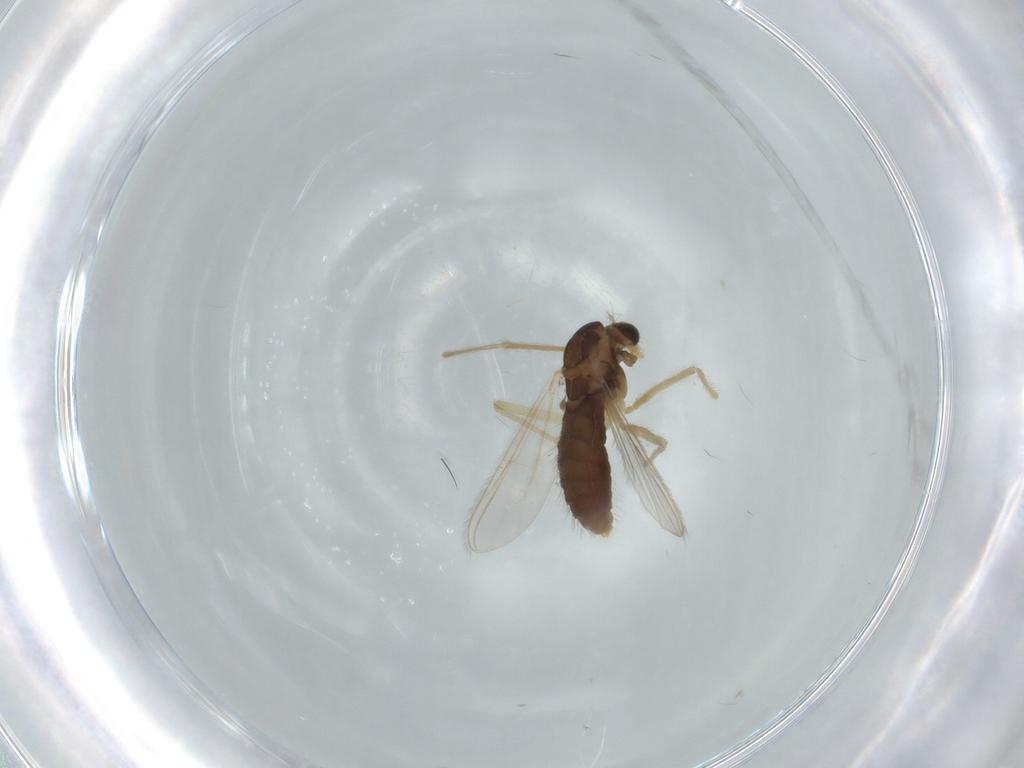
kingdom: Animalia
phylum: Arthropoda
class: Insecta
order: Diptera
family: Chironomidae
